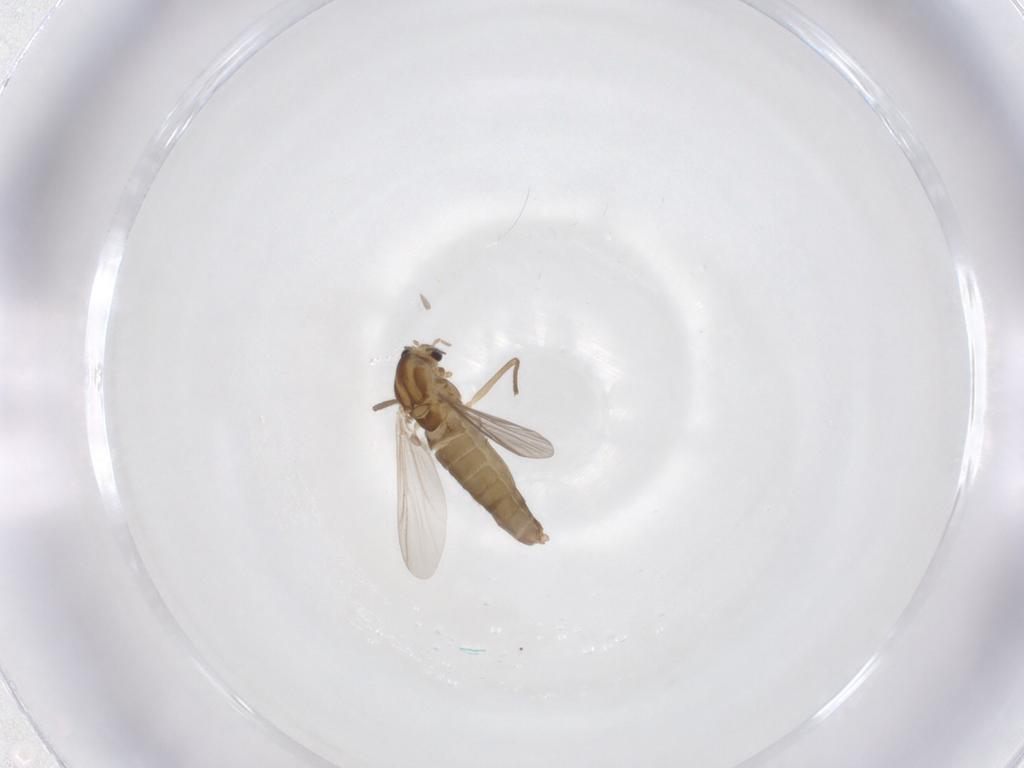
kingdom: Animalia
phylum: Arthropoda
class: Insecta
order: Diptera
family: Chironomidae
